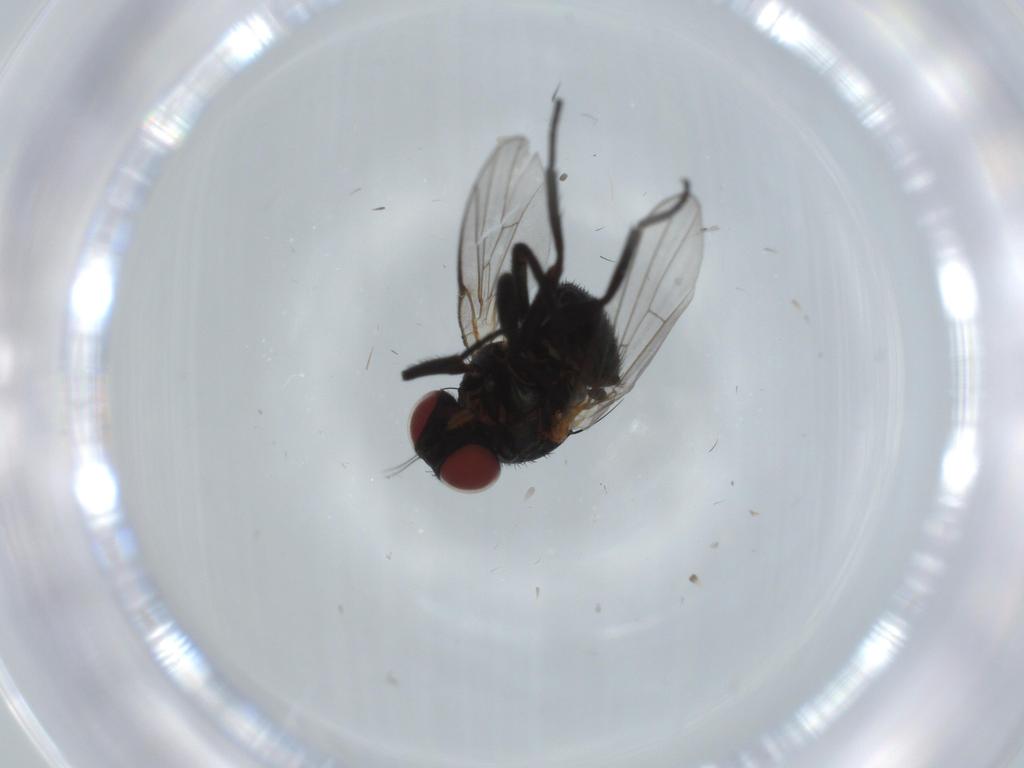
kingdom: Animalia
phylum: Arthropoda
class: Insecta
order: Diptera
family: Agromyzidae
